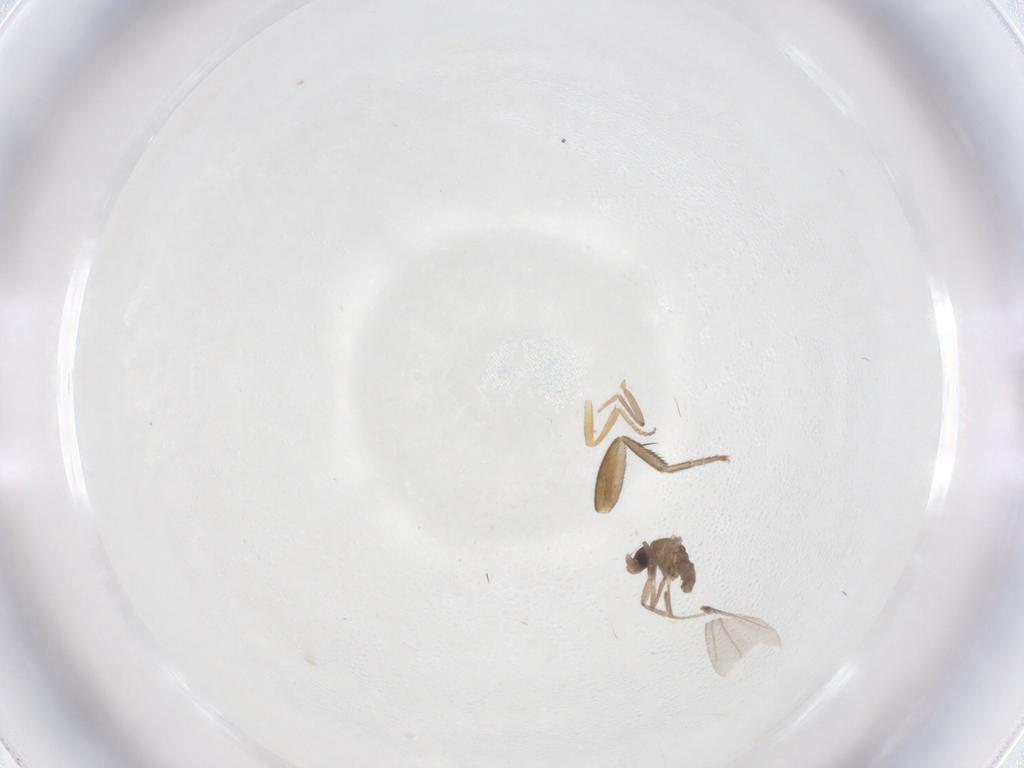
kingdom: Animalia
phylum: Arthropoda
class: Insecta
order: Diptera
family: Phoridae
